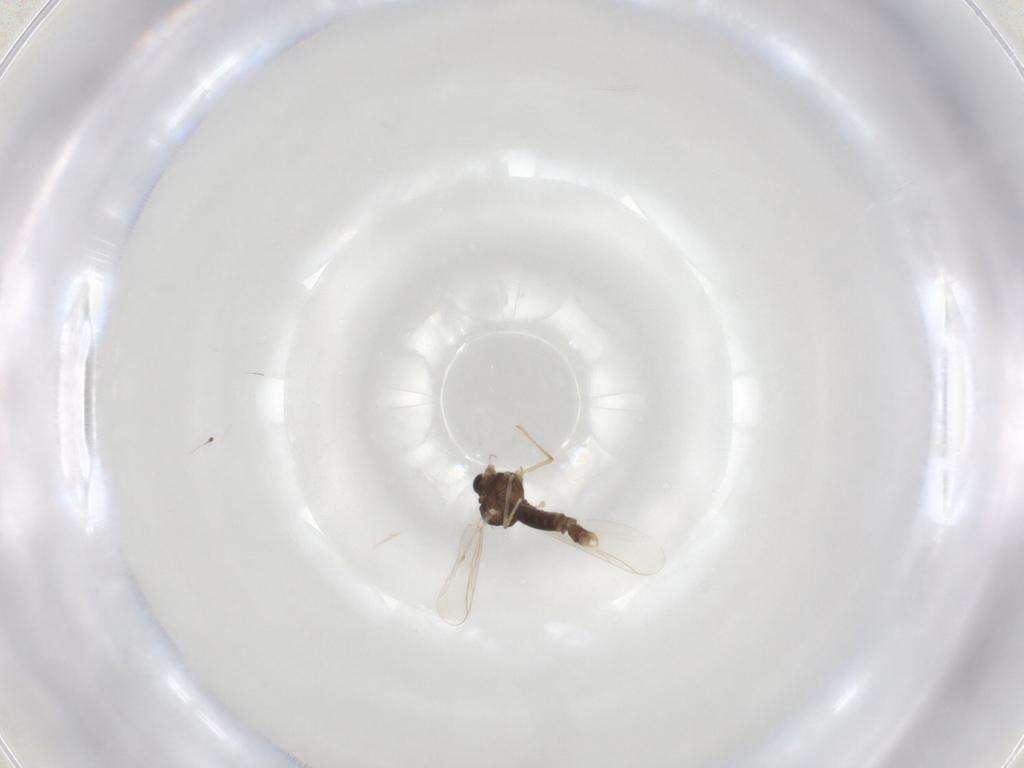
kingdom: Animalia
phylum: Arthropoda
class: Insecta
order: Diptera
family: Chironomidae
